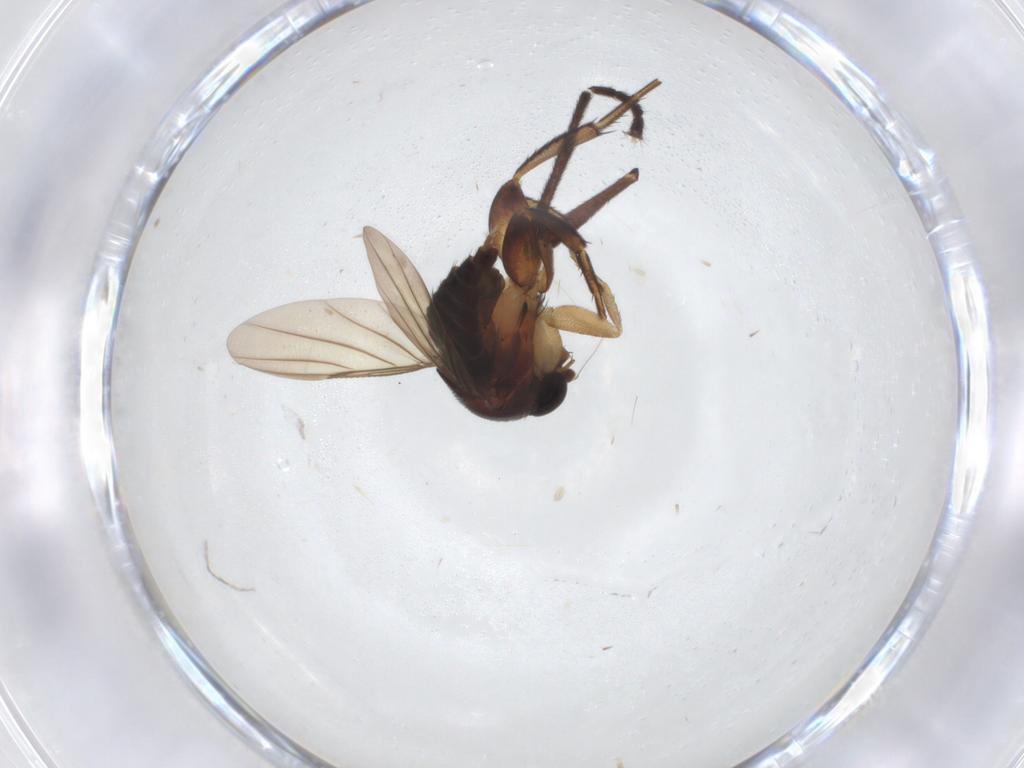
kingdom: Animalia
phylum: Arthropoda
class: Insecta
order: Diptera
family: Phoridae
